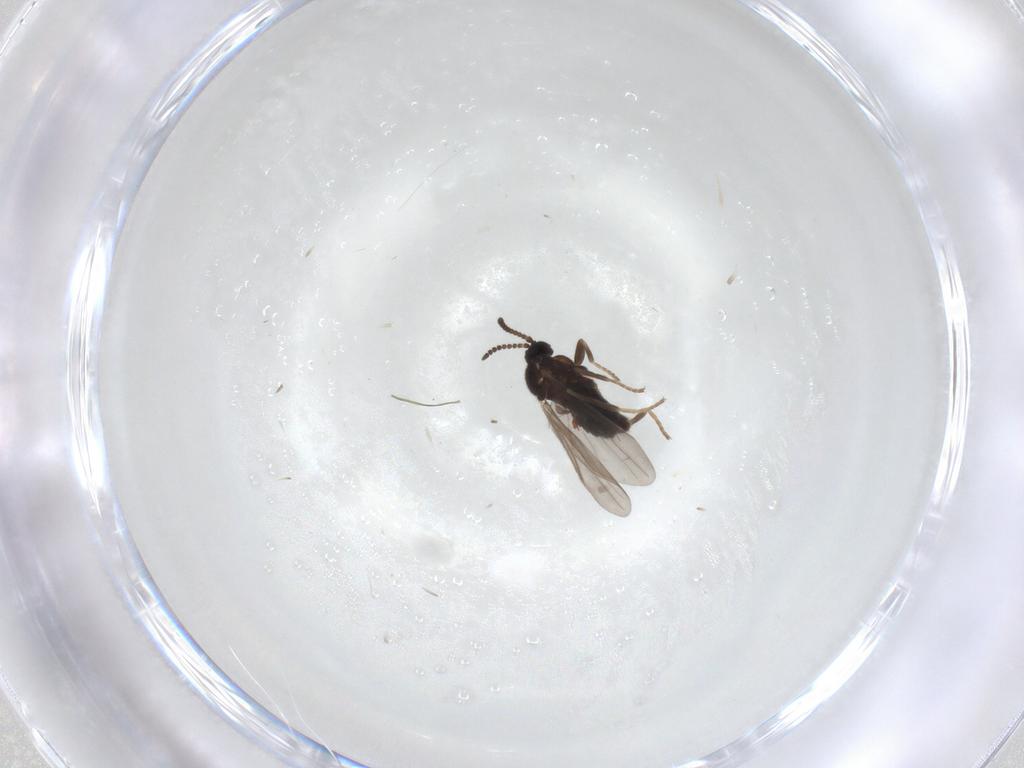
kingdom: Animalia
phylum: Arthropoda
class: Insecta
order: Diptera
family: Scatopsidae
